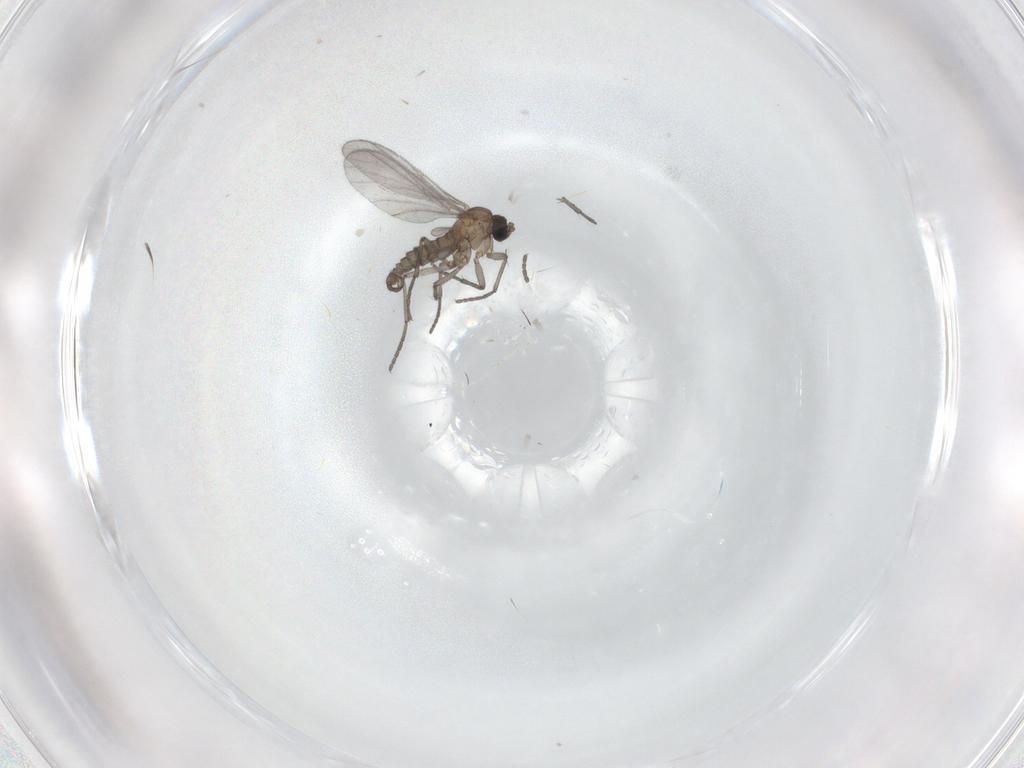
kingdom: Animalia
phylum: Arthropoda
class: Insecta
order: Diptera
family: Sciaridae
